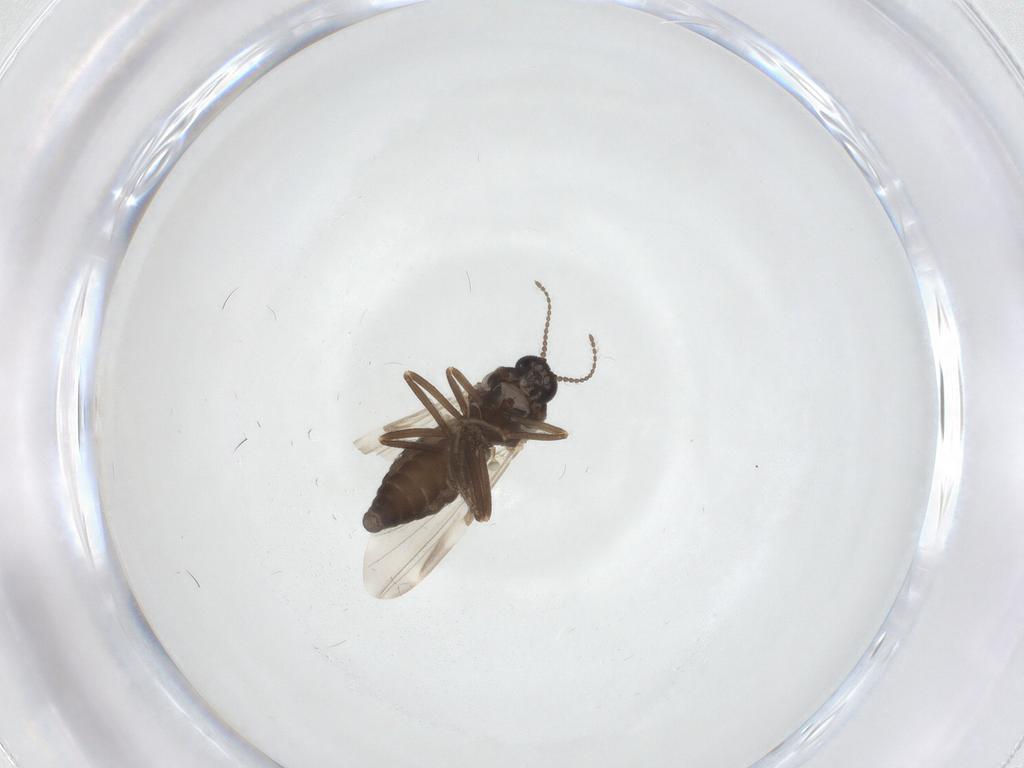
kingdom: Animalia
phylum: Arthropoda
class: Insecta
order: Diptera
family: Ceratopogonidae
